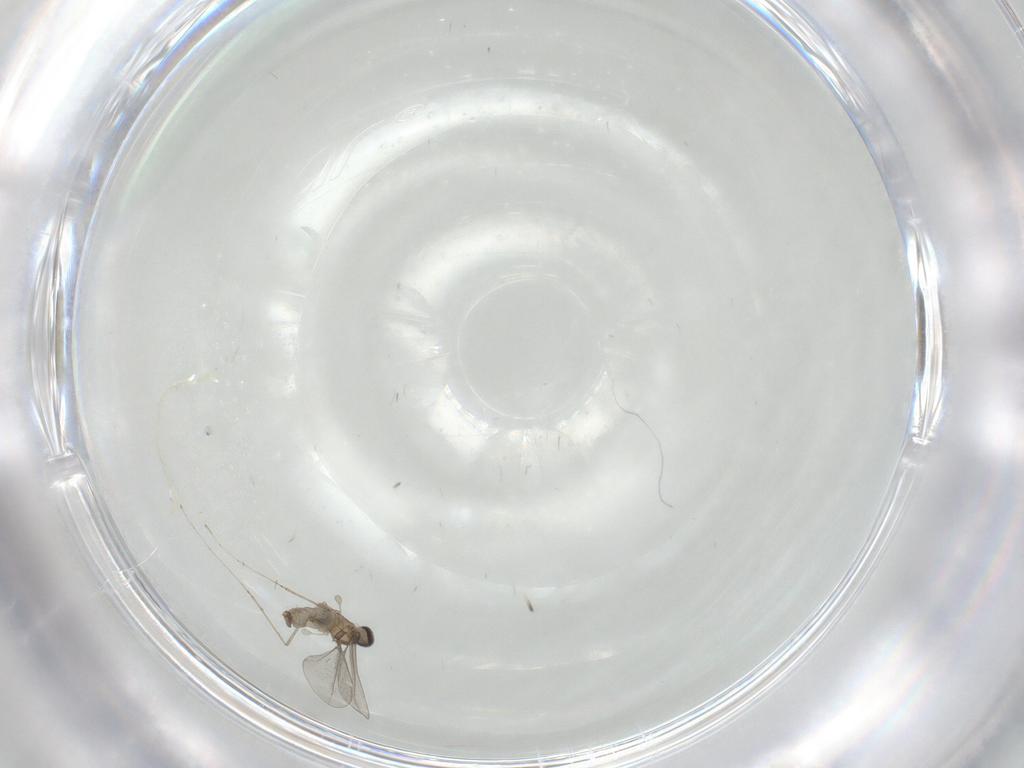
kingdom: Animalia
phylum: Arthropoda
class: Insecta
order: Diptera
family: Cecidomyiidae
